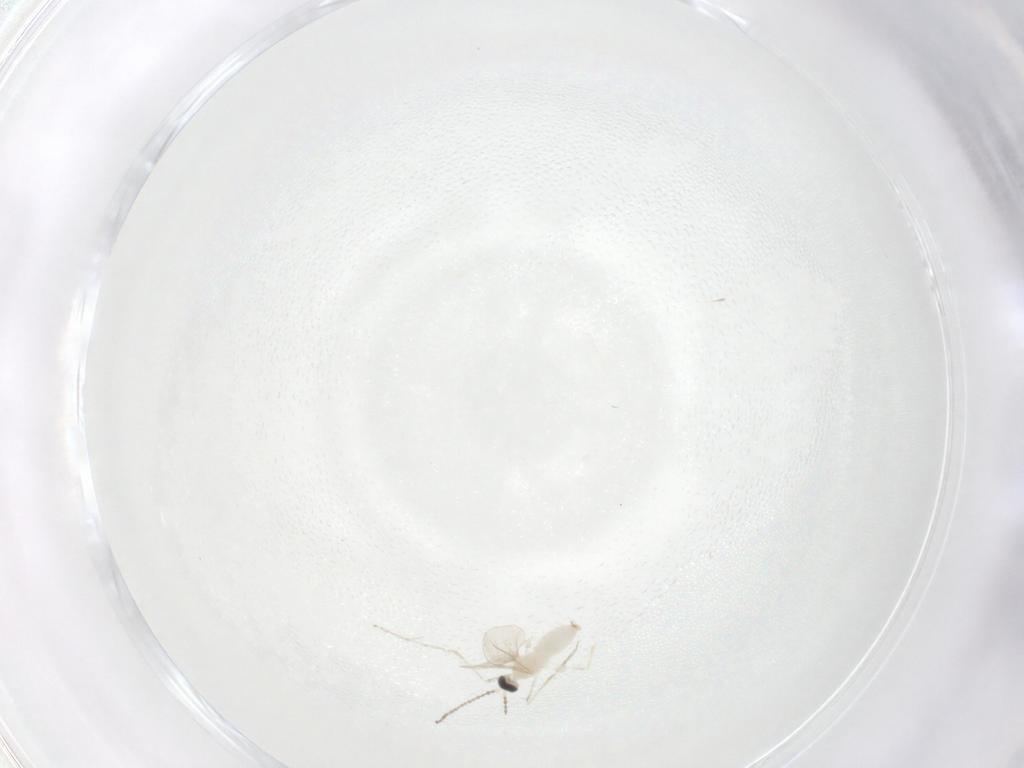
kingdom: Animalia
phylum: Arthropoda
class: Insecta
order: Diptera
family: Cecidomyiidae
